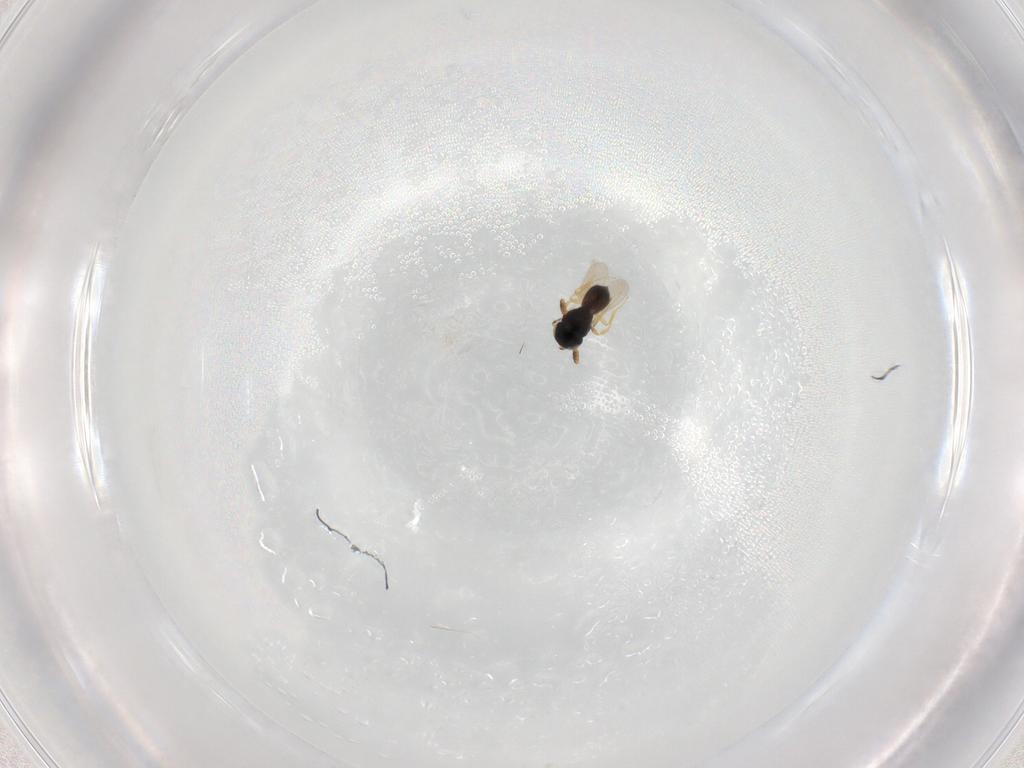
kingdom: Animalia
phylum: Arthropoda
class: Insecta
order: Hymenoptera
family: Scelionidae
